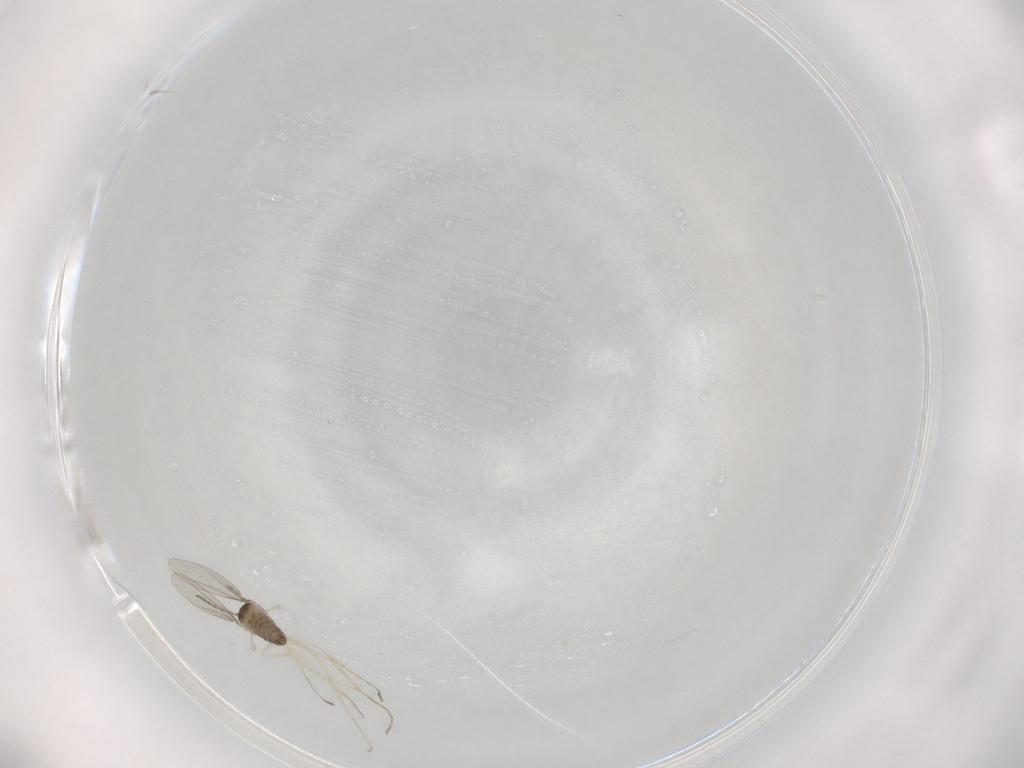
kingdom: Animalia
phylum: Arthropoda
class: Insecta
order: Diptera
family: Cecidomyiidae
